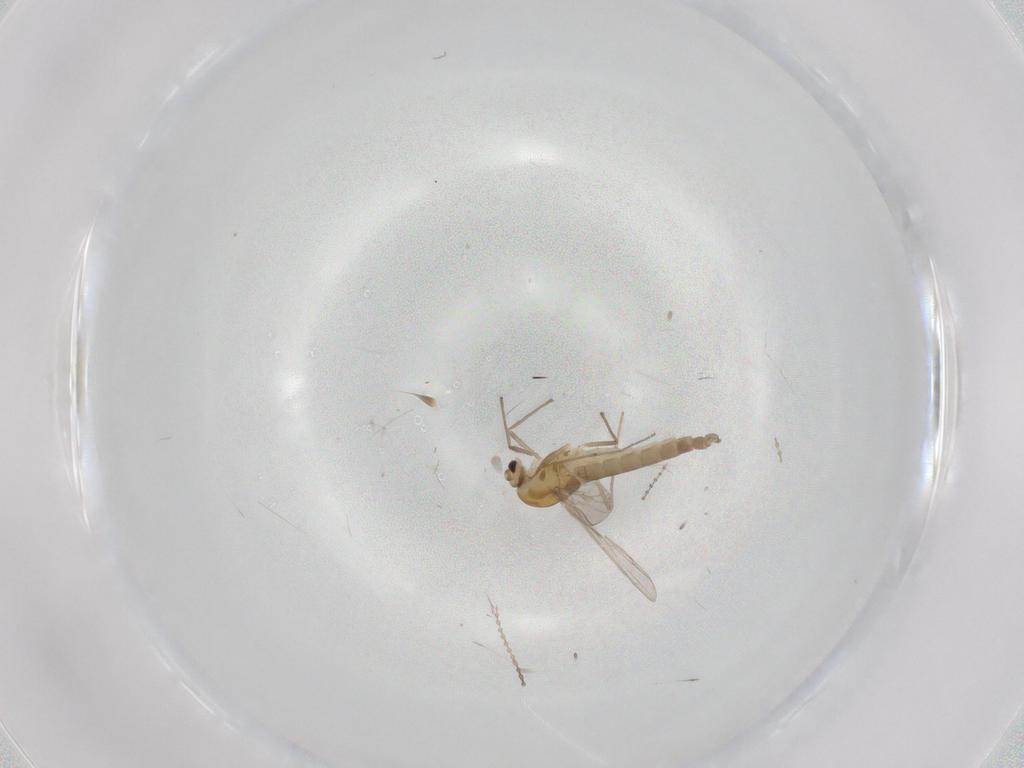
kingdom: Animalia
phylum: Arthropoda
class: Insecta
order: Diptera
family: Chironomidae
